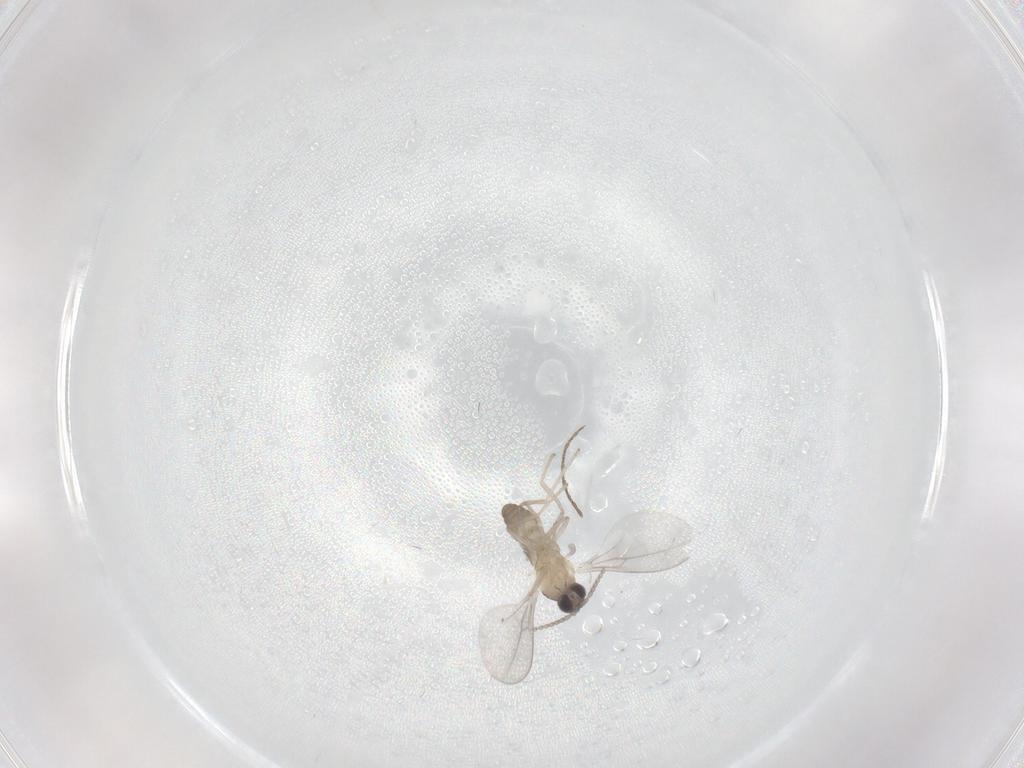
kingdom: Animalia
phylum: Arthropoda
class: Insecta
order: Diptera
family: Cecidomyiidae
